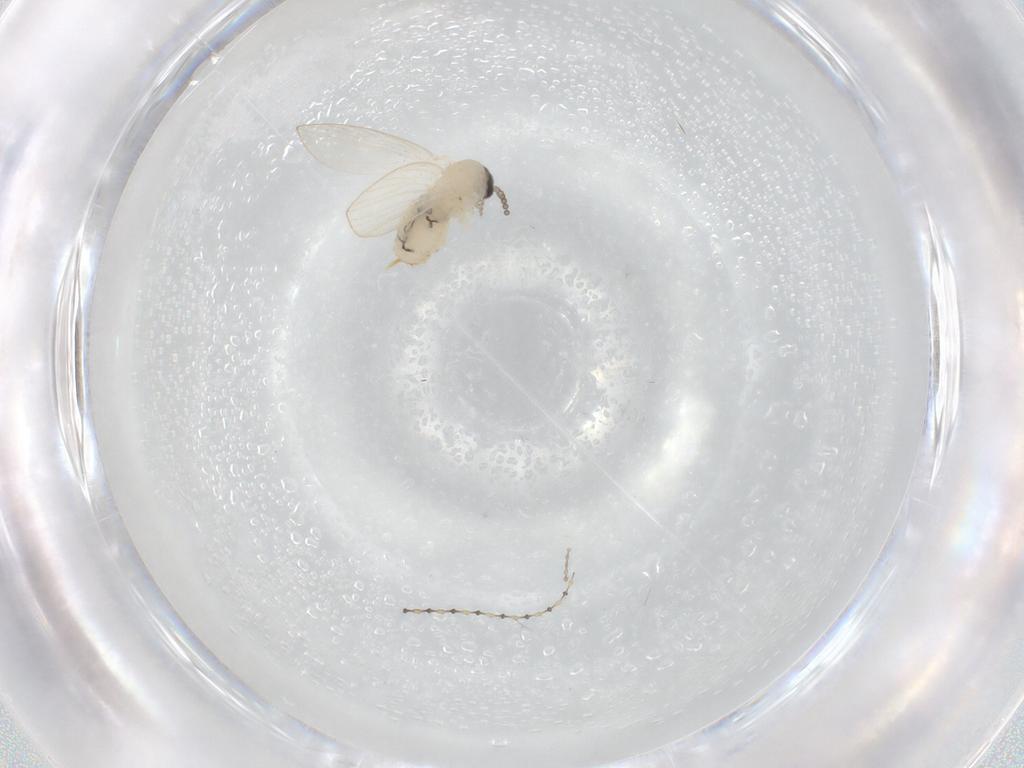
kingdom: Animalia
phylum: Arthropoda
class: Insecta
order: Diptera
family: Psychodidae
